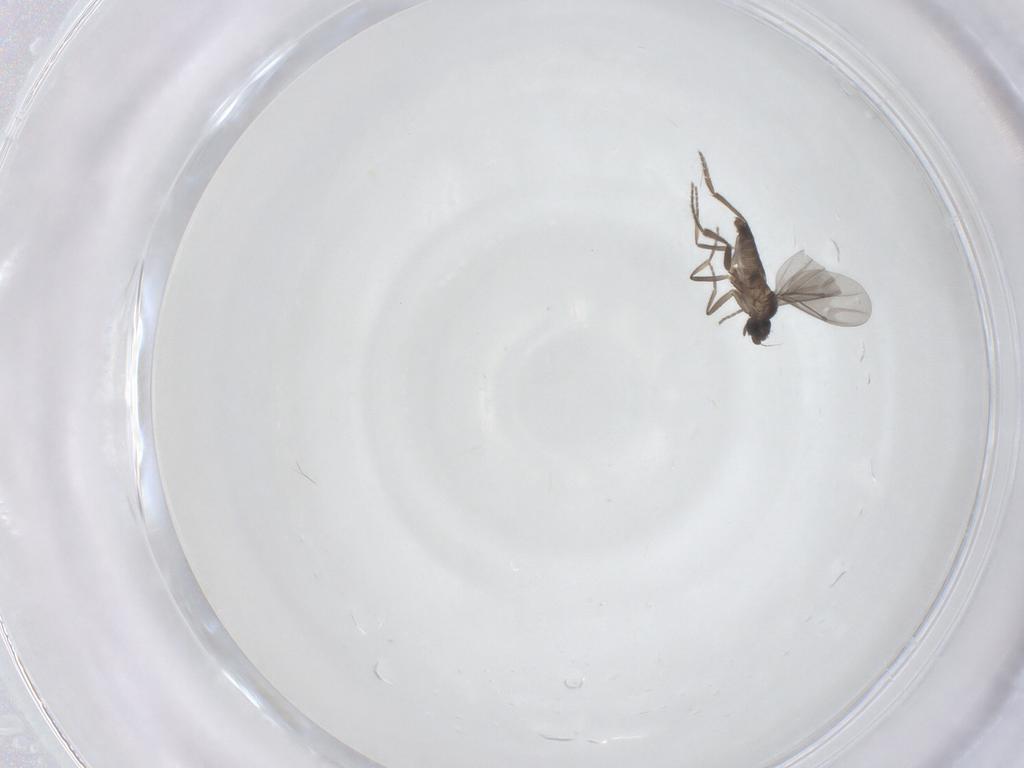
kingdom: Animalia
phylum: Arthropoda
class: Insecta
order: Diptera
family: Phoridae
